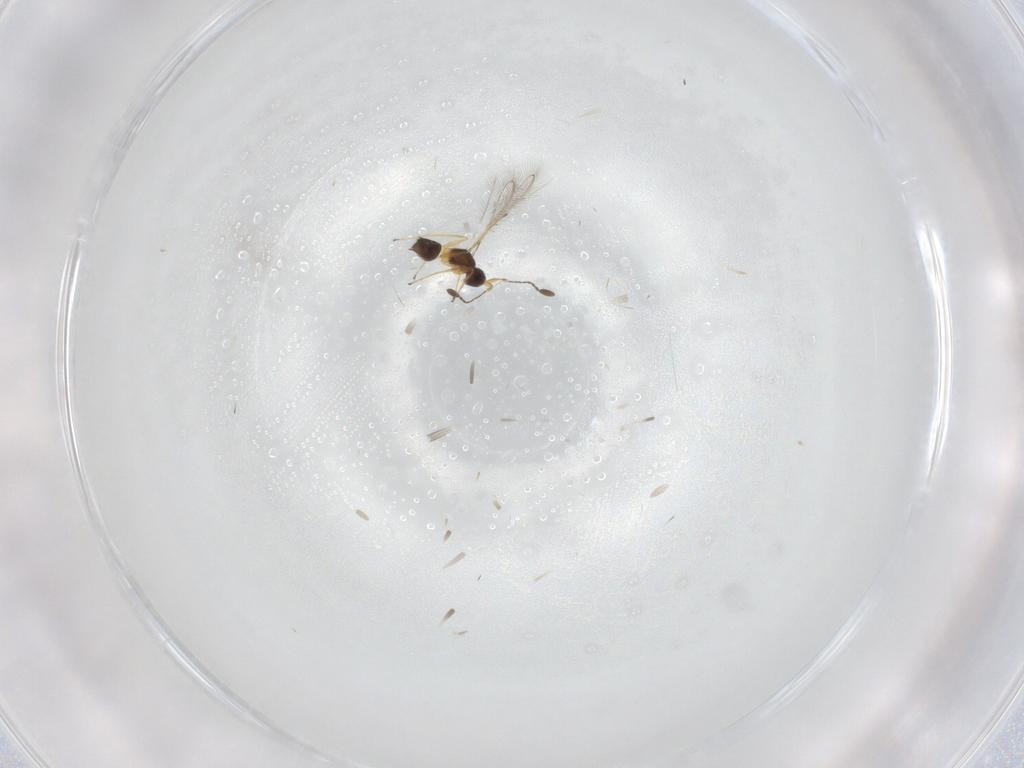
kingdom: Animalia
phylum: Arthropoda
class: Insecta
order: Hymenoptera
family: Mymaridae
